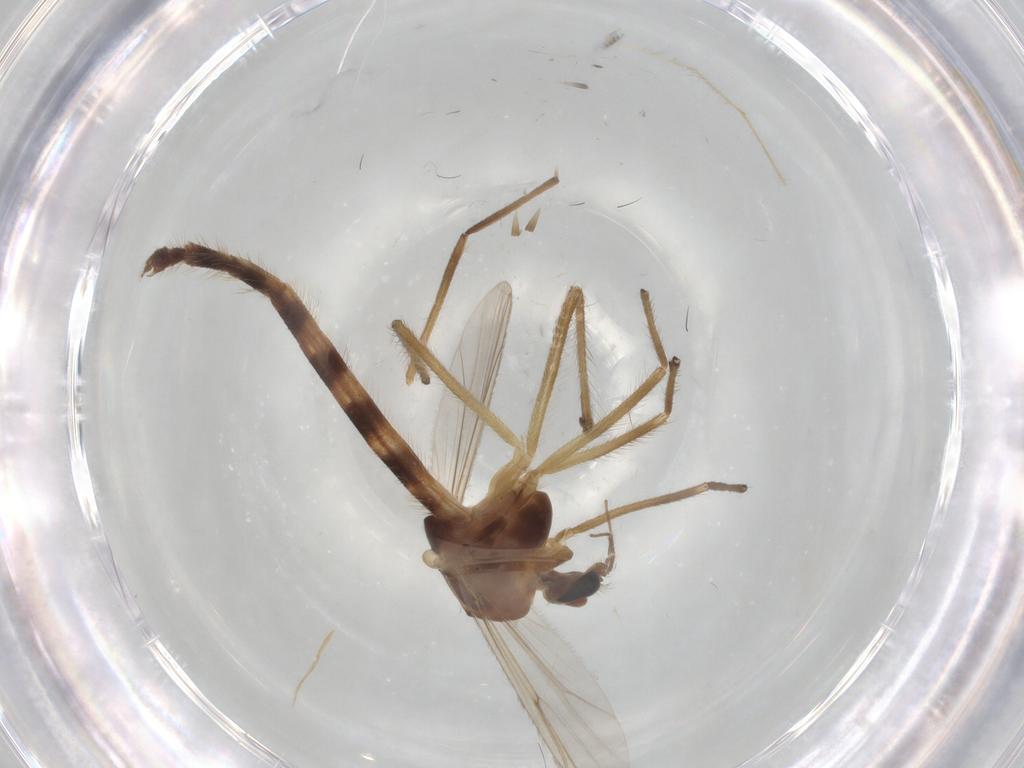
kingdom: Animalia
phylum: Arthropoda
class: Insecta
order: Diptera
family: Chironomidae
